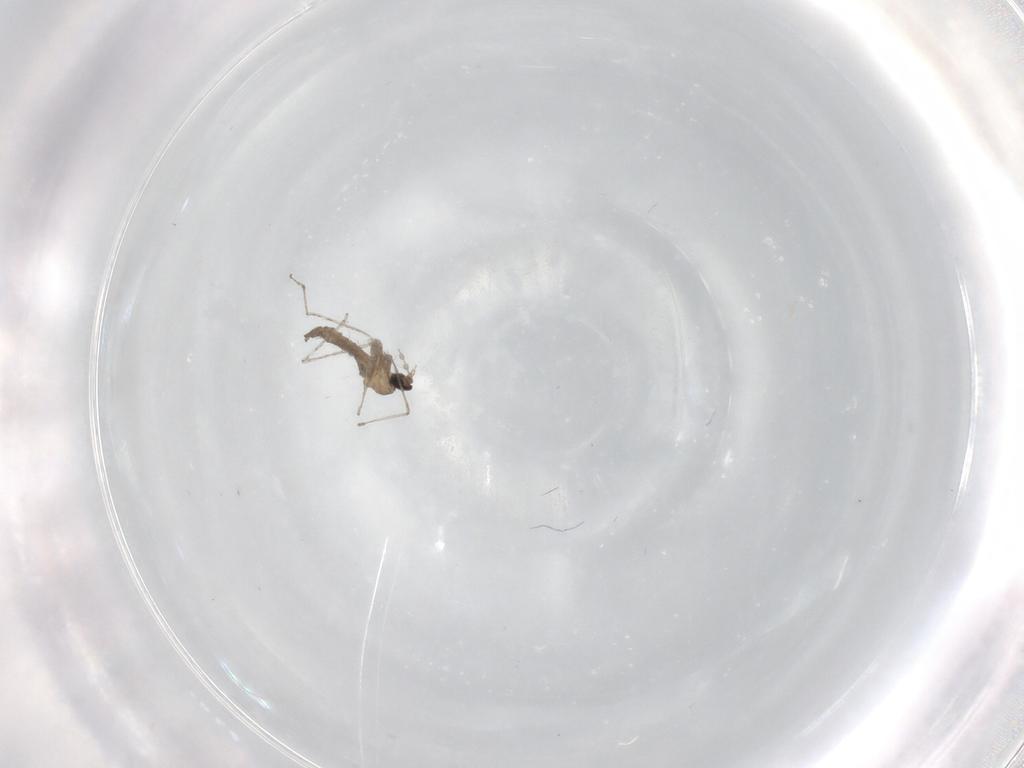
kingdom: Animalia
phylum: Arthropoda
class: Insecta
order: Diptera
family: Cecidomyiidae
